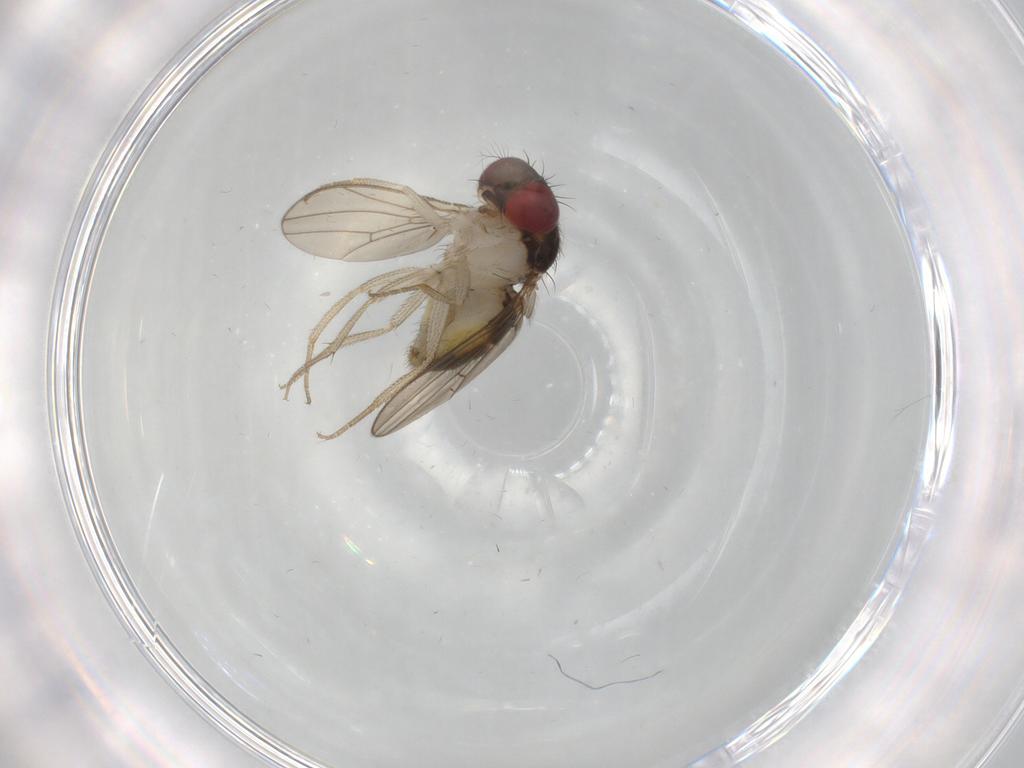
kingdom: Animalia
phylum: Arthropoda
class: Insecta
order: Diptera
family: Drosophilidae
